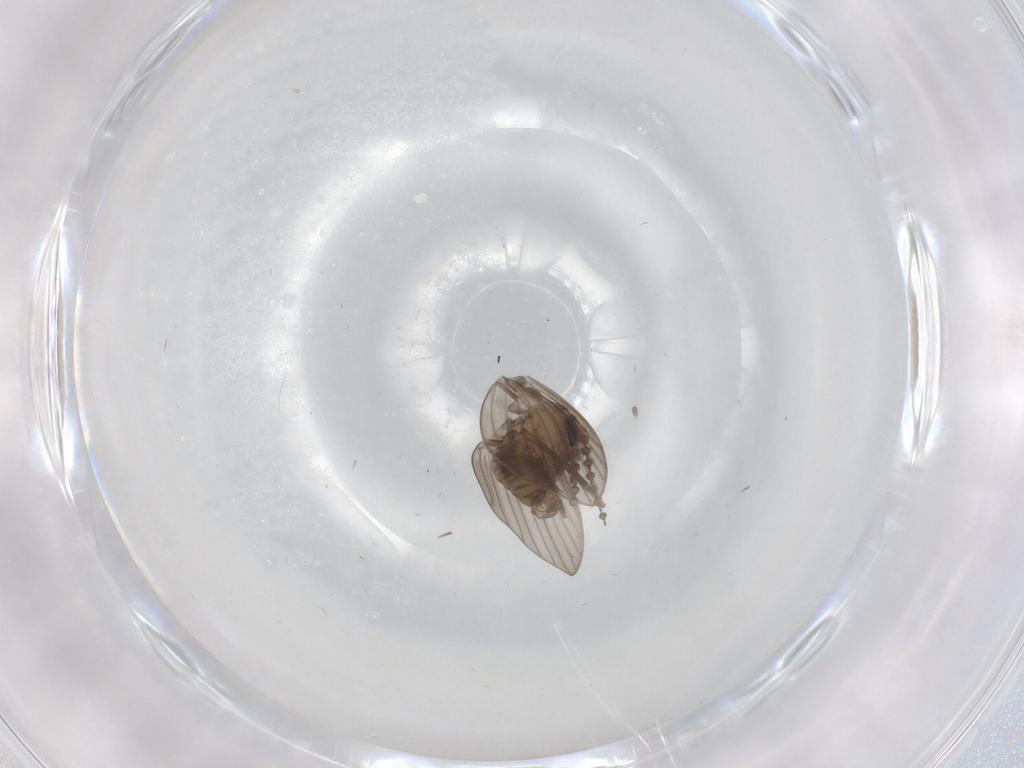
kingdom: Animalia
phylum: Arthropoda
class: Insecta
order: Diptera
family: Psychodidae
